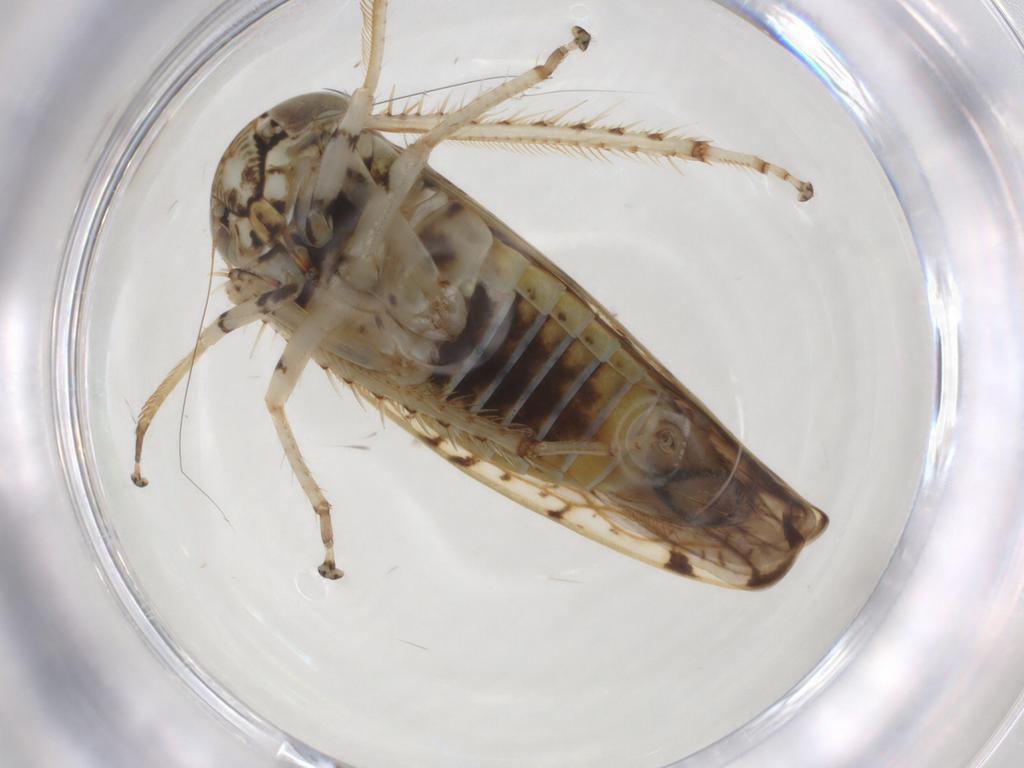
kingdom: Animalia
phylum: Arthropoda
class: Insecta
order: Hemiptera
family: Cicadellidae
